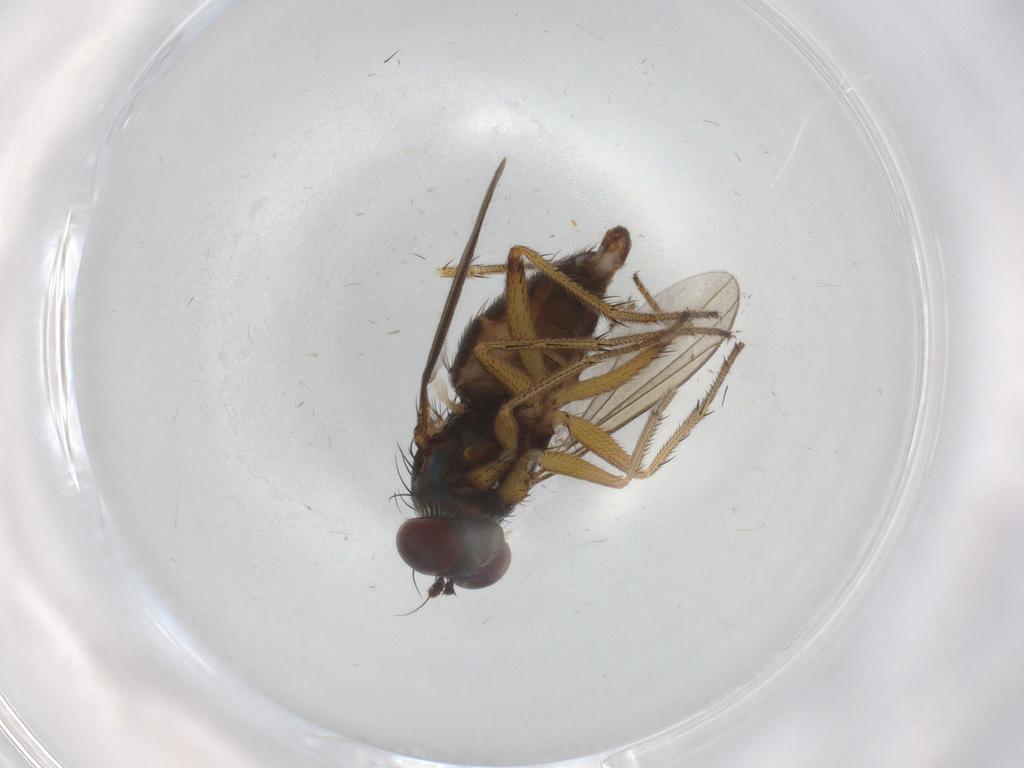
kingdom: Animalia
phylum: Arthropoda
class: Insecta
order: Diptera
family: Dolichopodidae
